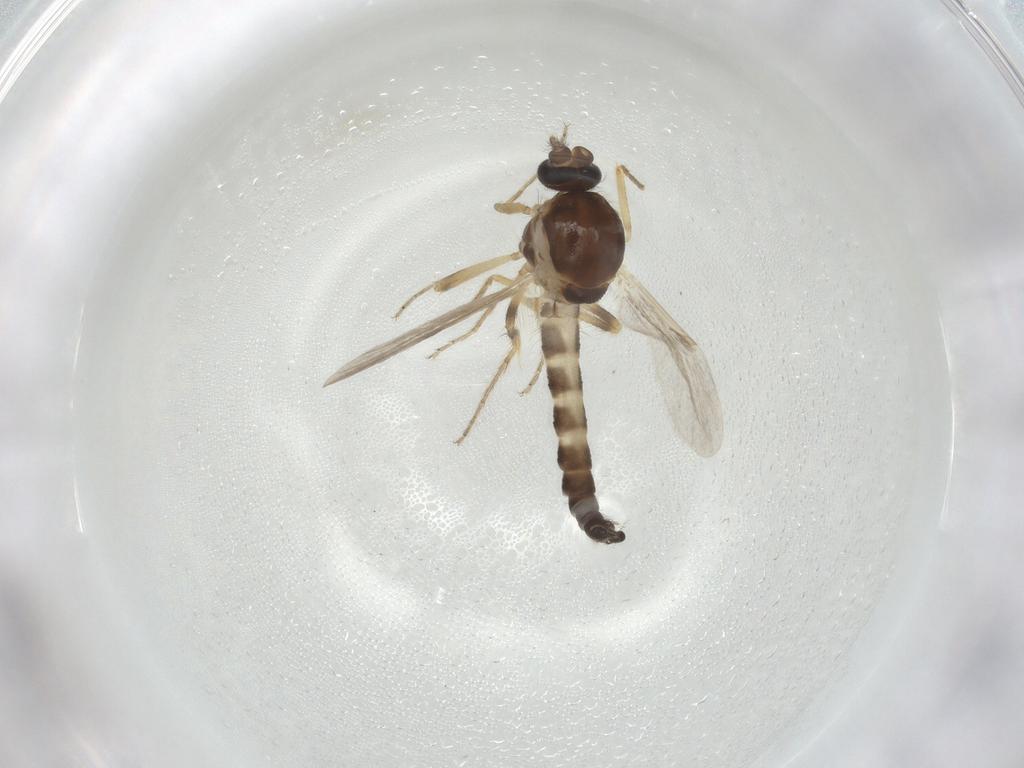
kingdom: Animalia
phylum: Arthropoda
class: Insecta
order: Diptera
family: Ceratopogonidae
